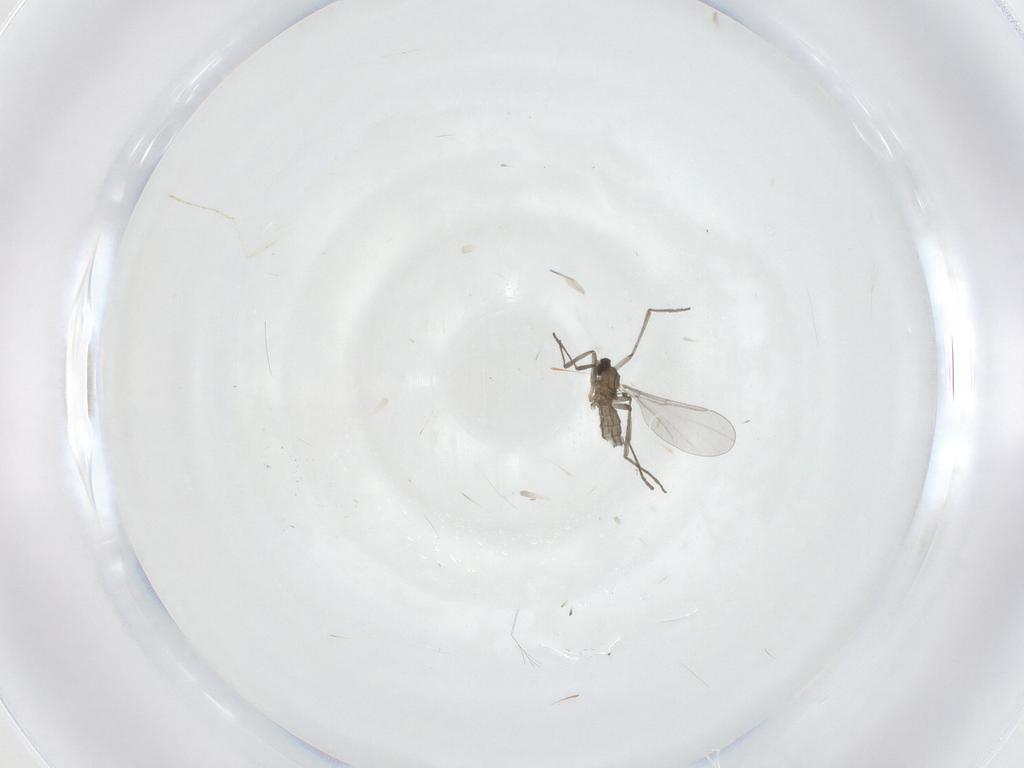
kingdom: Animalia
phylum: Arthropoda
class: Insecta
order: Diptera
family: Cecidomyiidae
